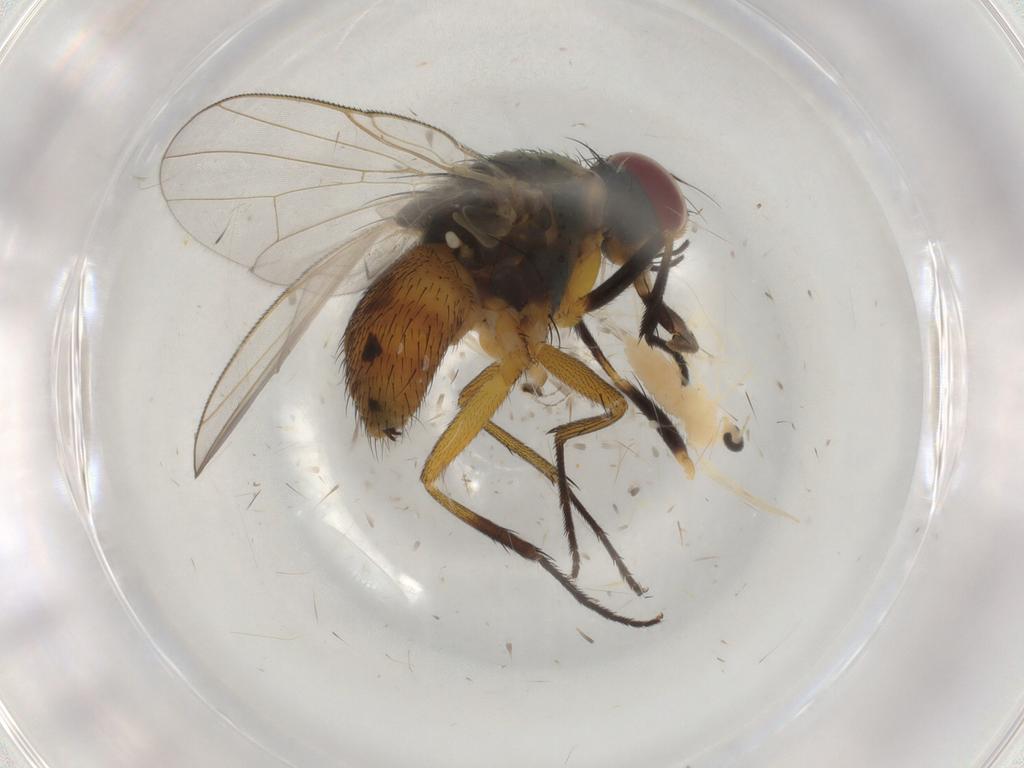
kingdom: Animalia
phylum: Arthropoda
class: Insecta
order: Diptera
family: Muscidae
